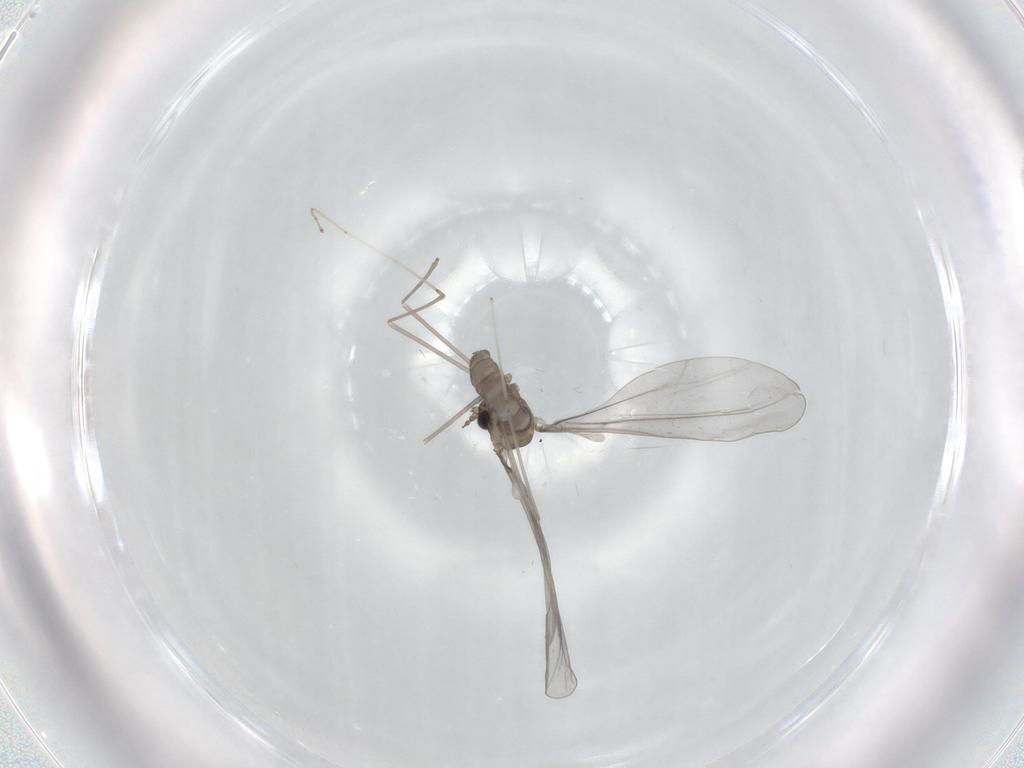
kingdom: Animalia
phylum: Arthropoda
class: Insecta
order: Diptera
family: Cecidomyiidae
